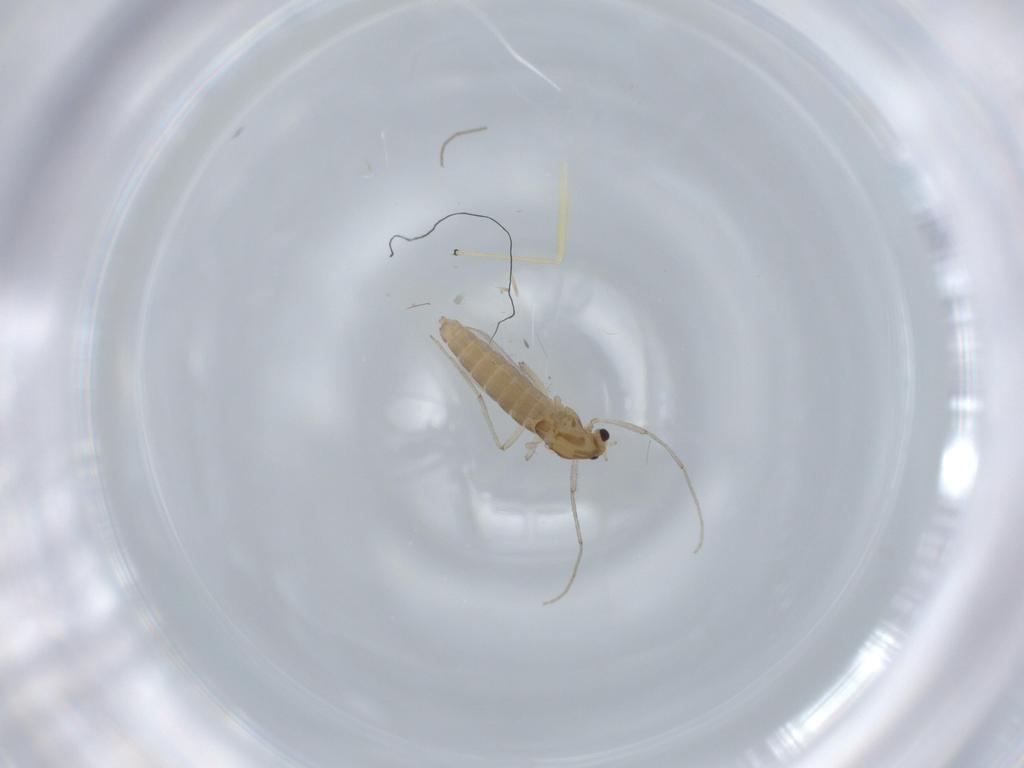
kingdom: Animalia
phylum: Arthropoda
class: Insecta
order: Diptera
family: Chironomidae
